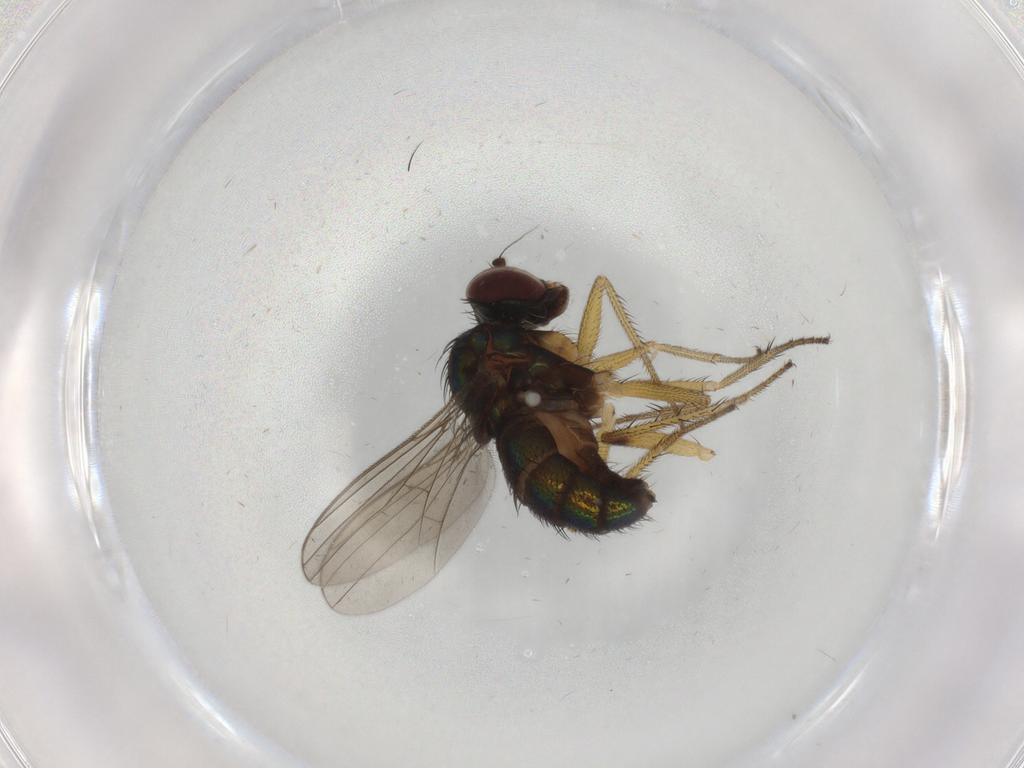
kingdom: Animalia
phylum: Arthropoda
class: Insecta
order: Diptera
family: Dolichopodidae
